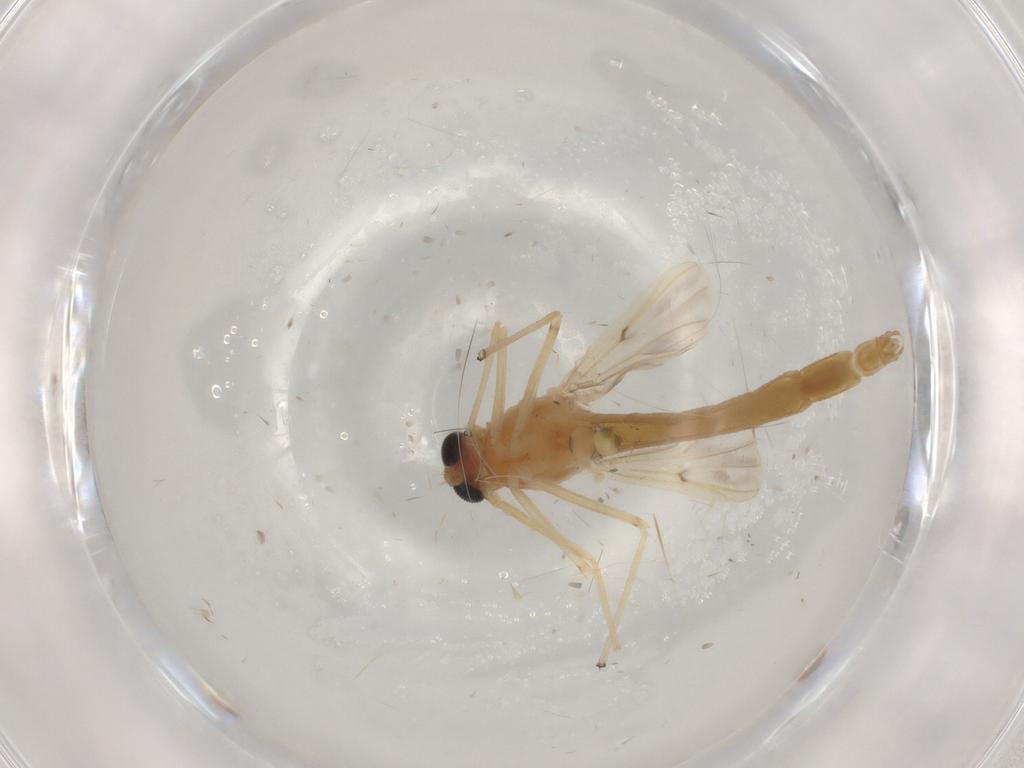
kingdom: Animalia
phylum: Arthropoda
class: Insecta
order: Diptera
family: Chironomidae
